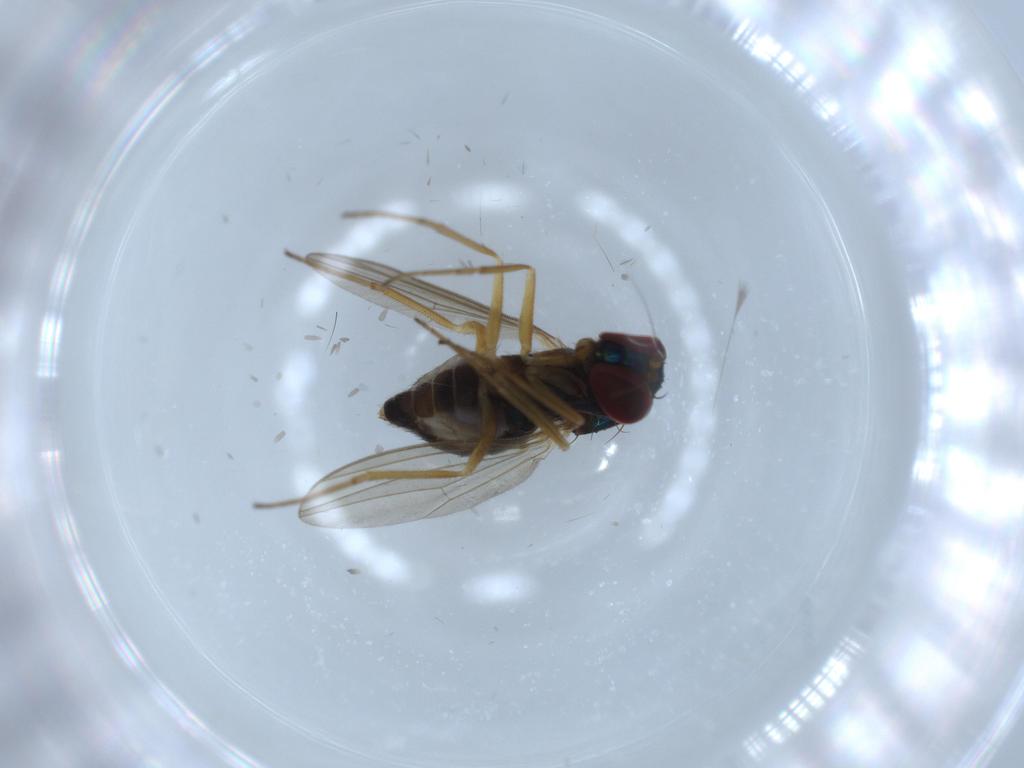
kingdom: Animalia
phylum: Arthropoda
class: Insecta
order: Diptera
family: Dolichopodidae
